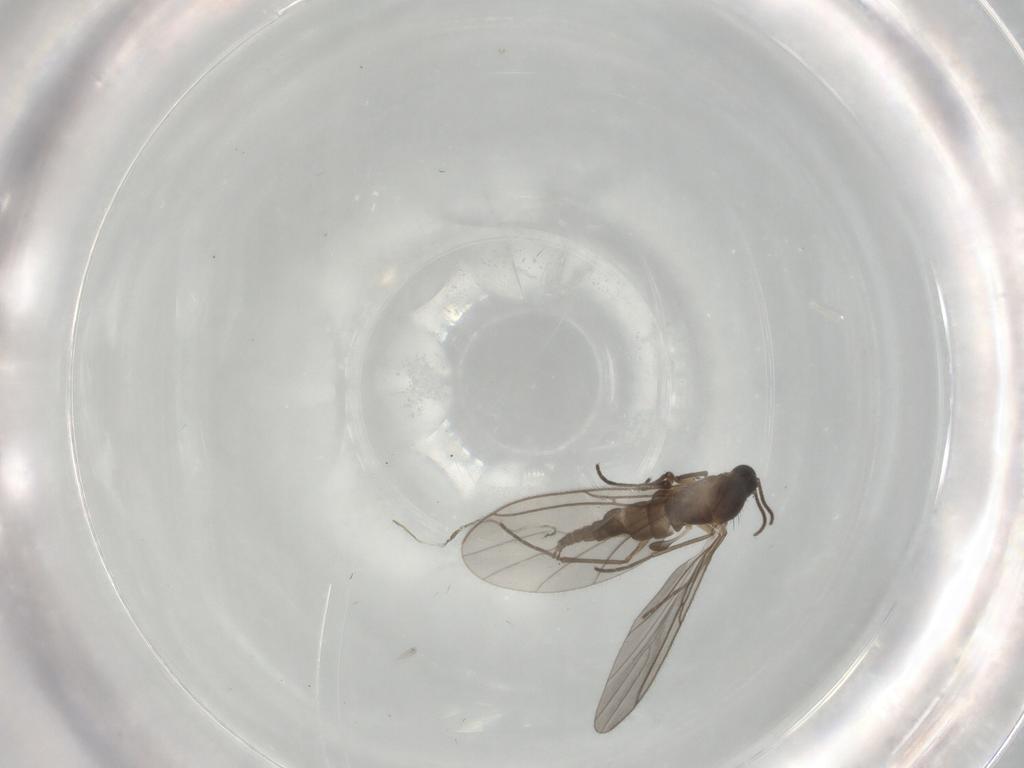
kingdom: Animalia
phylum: Arthropoda
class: Insecta
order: Diptera
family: Sciaridae
